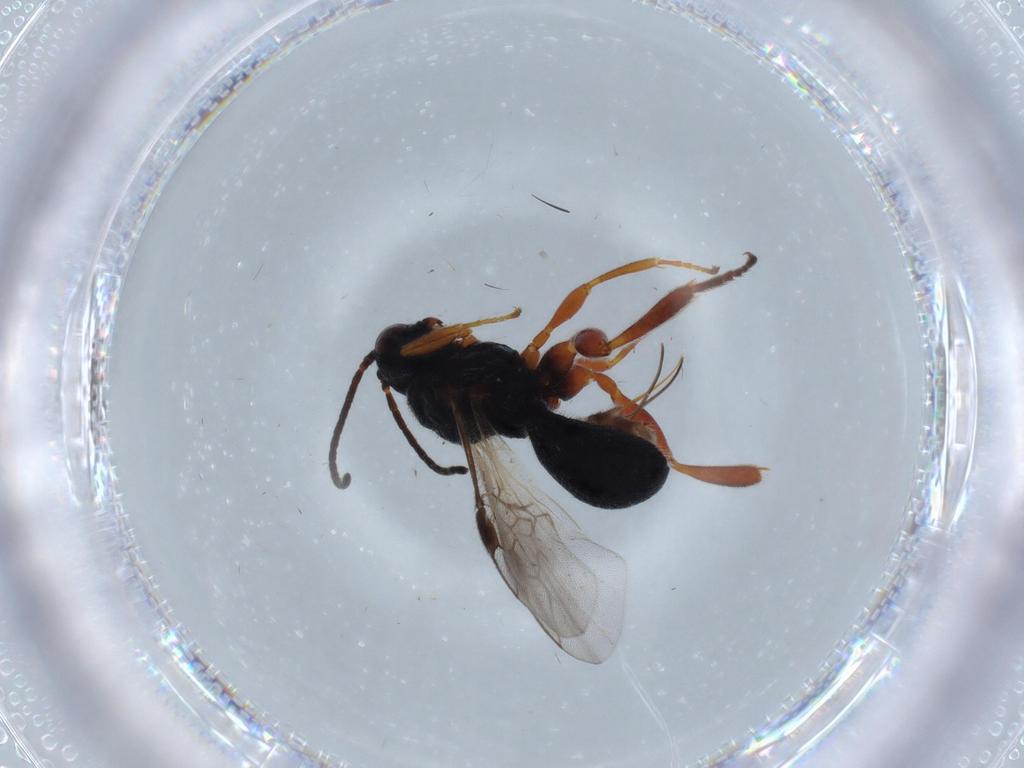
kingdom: Animalia
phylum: Arthropoda
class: Insecta
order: Hymenoptera
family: Braconidae
